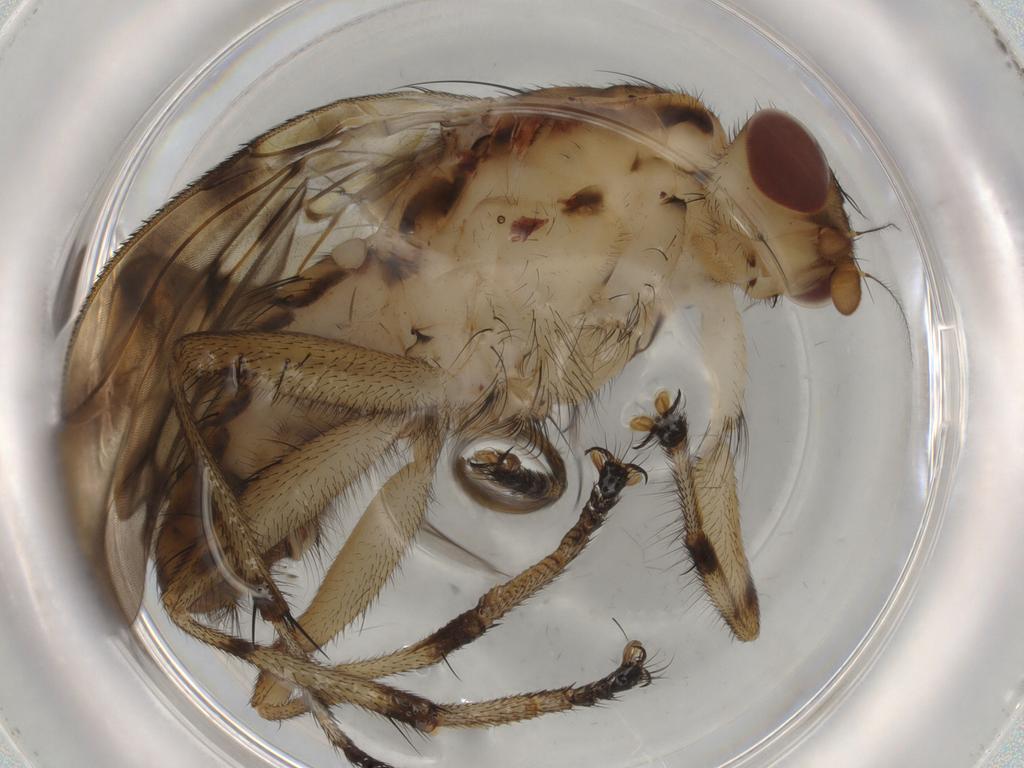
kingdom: Animalia
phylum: Arthropoda
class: Insecta
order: Diptera
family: Heleomyzidae
